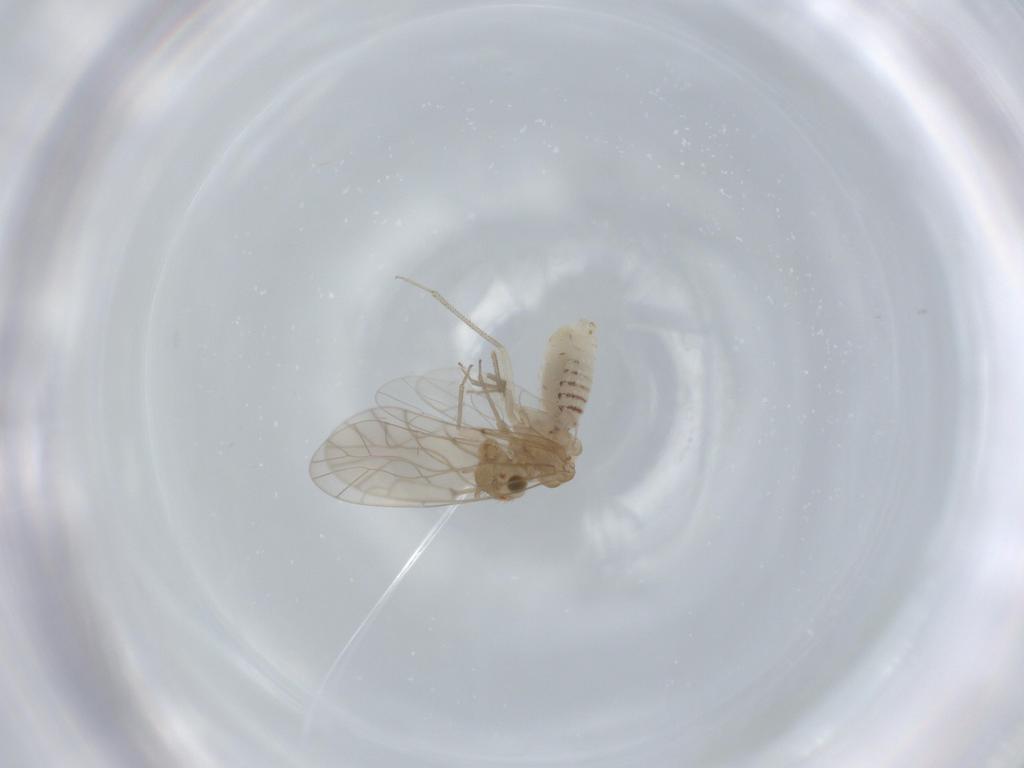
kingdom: Animalia
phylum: Arthropoda
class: Insecta
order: Psocodea
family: Lachesillidae
